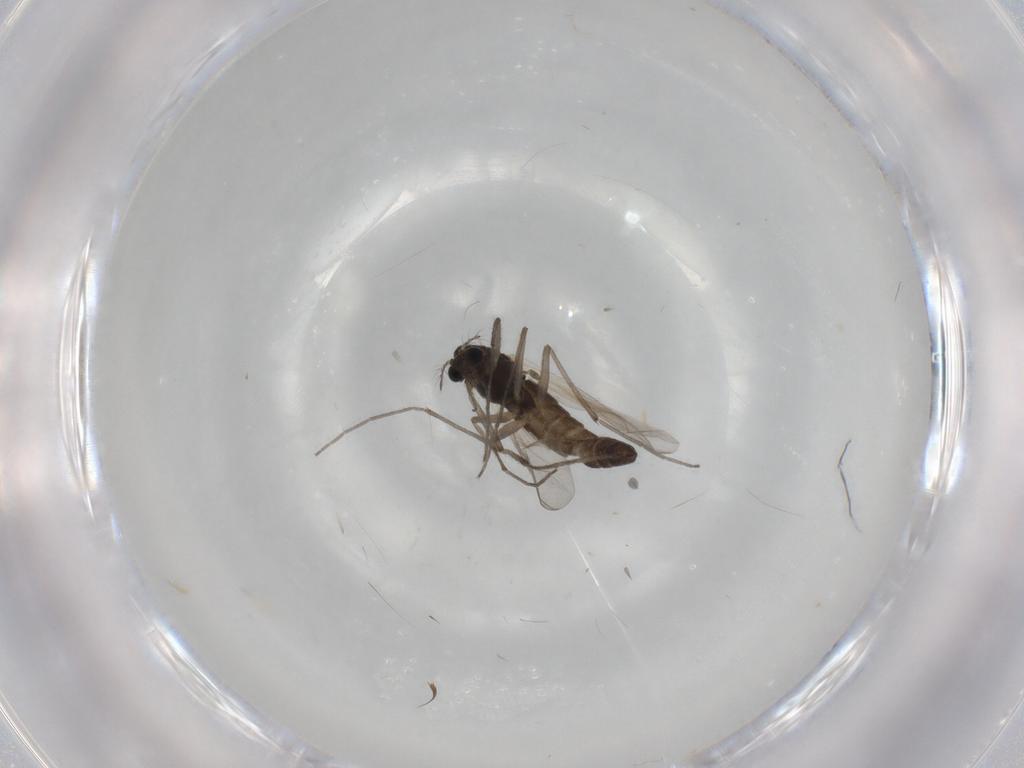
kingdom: Animalia
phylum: Arthropoda
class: Insecta
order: Diptera
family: Chironomidae
